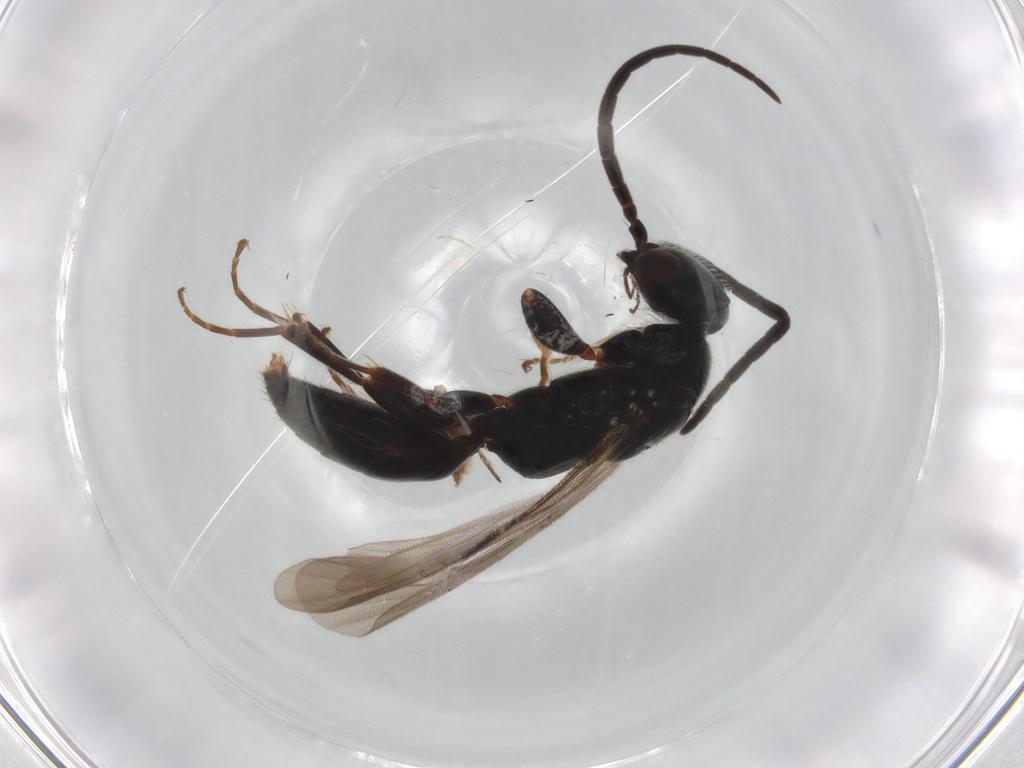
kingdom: Animalia
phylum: Arthropoda
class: Insecta
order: Hymenoptera
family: Bethylidae
